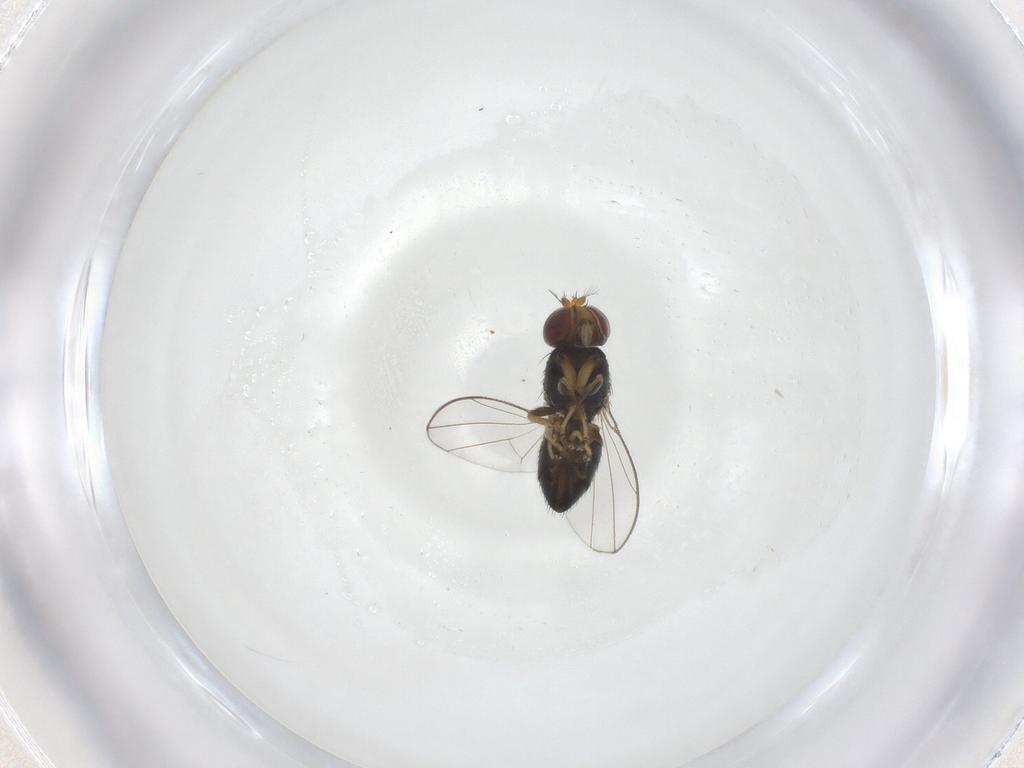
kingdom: Animalia
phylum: Arthropoda
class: Insecta
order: Diptera
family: Ephydridae
